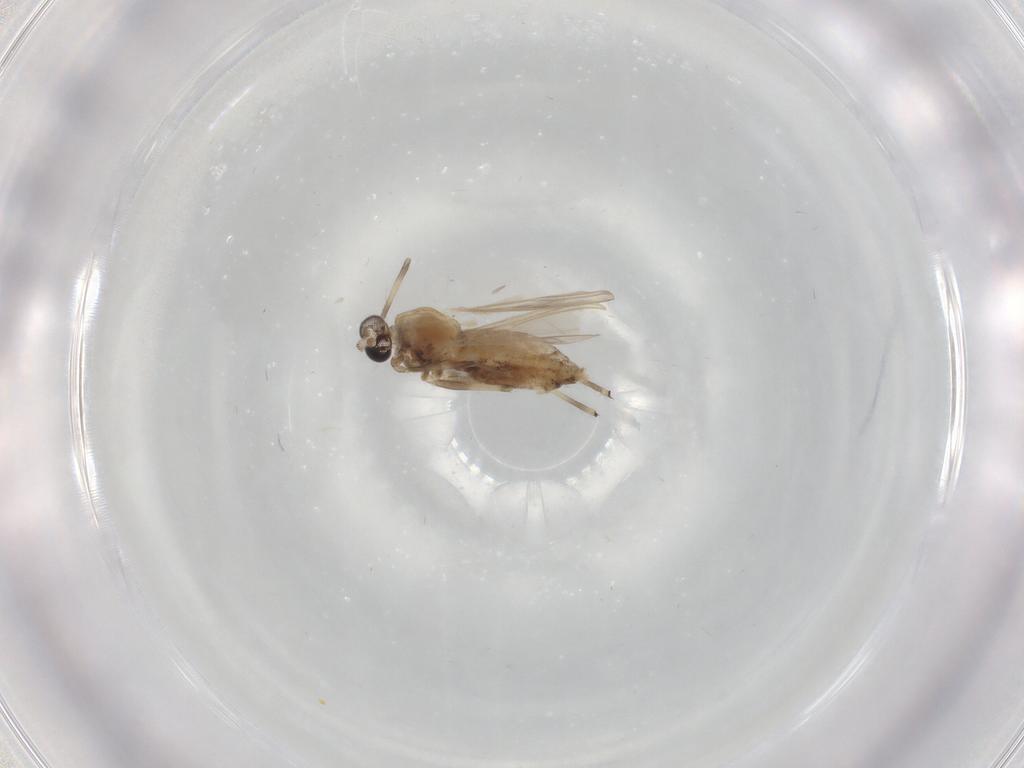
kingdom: Animalia
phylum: Arthropoda
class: Insecta
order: Diptera
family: Chironomidae
